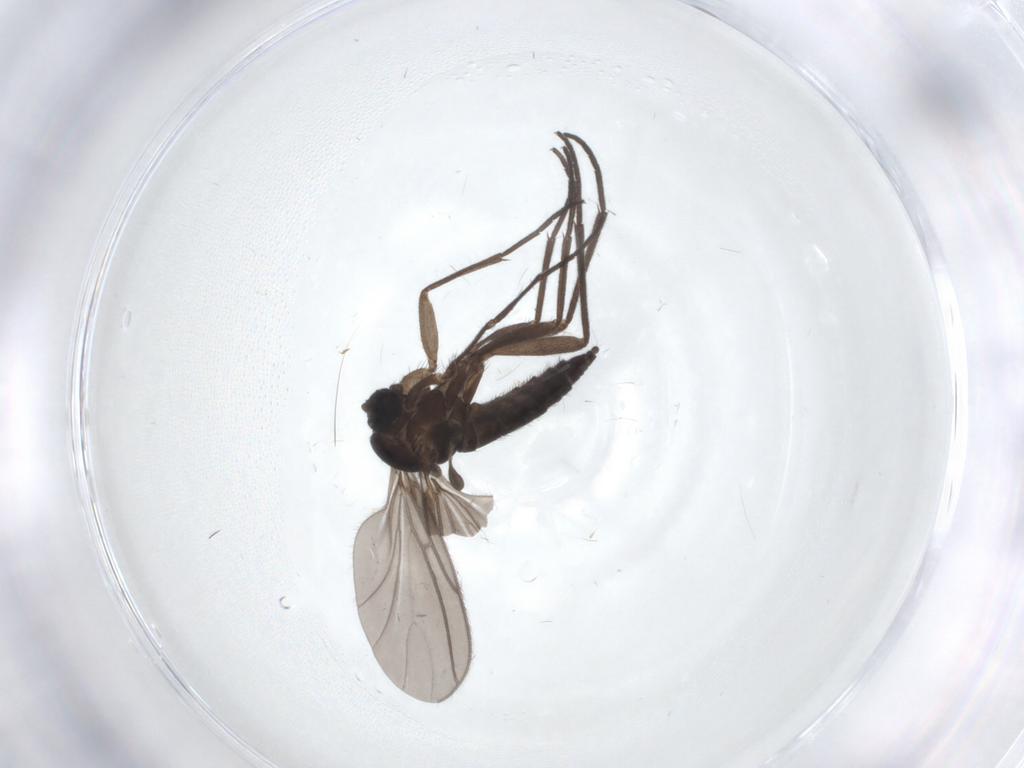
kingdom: Animalia
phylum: Arthropoda
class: Insecta
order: Diptera
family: Sciaridae
